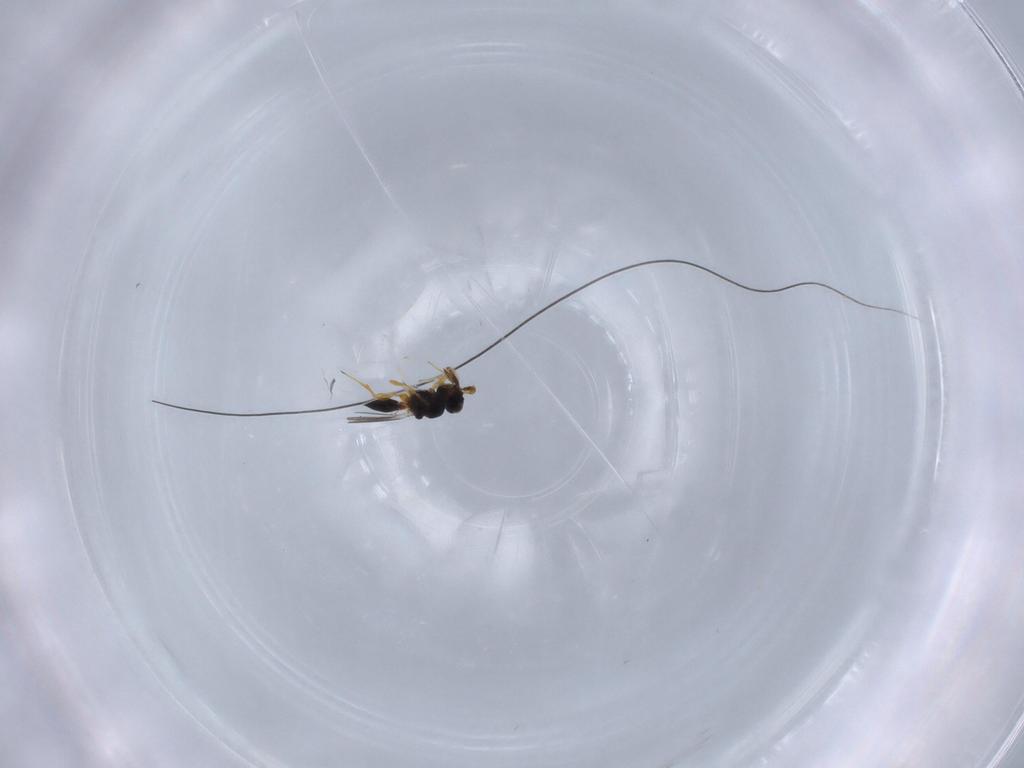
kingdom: Animalia
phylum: Arthropoda
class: Insecta
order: Hymenoptera
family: Platygastridae
